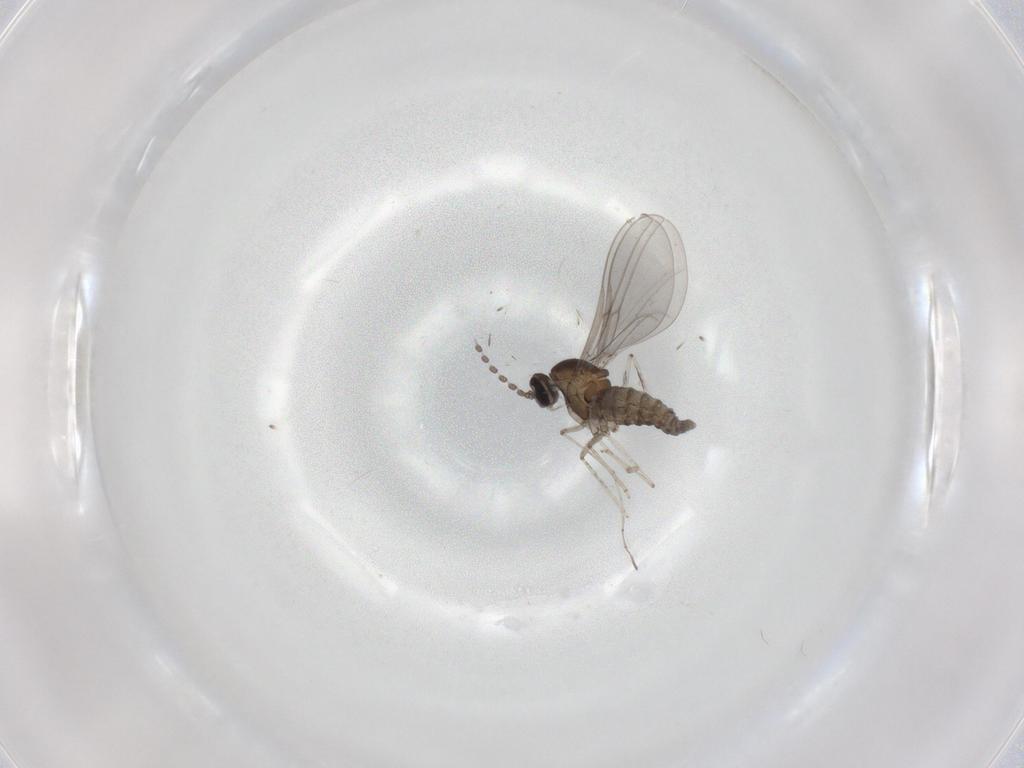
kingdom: Animalia
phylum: Arthropoda
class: Insecta
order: Diptera
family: Cecidomyiidae
